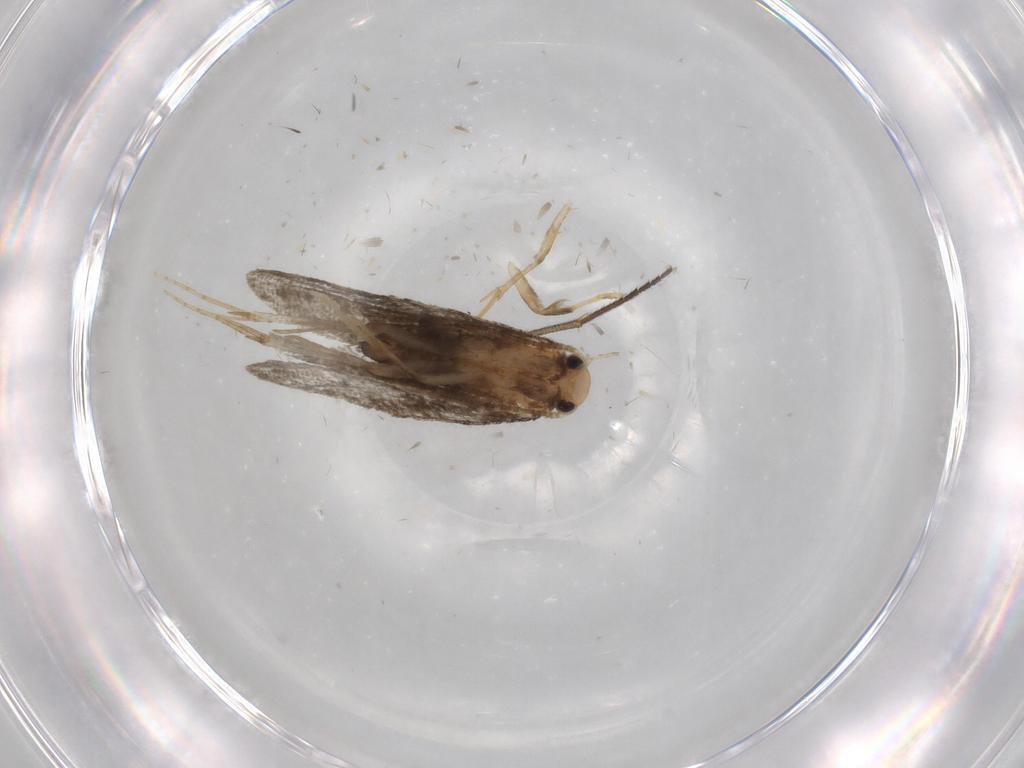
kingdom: Animalia
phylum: Arthropoda
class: Insecta
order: Lepidoptera
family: Psychidae
